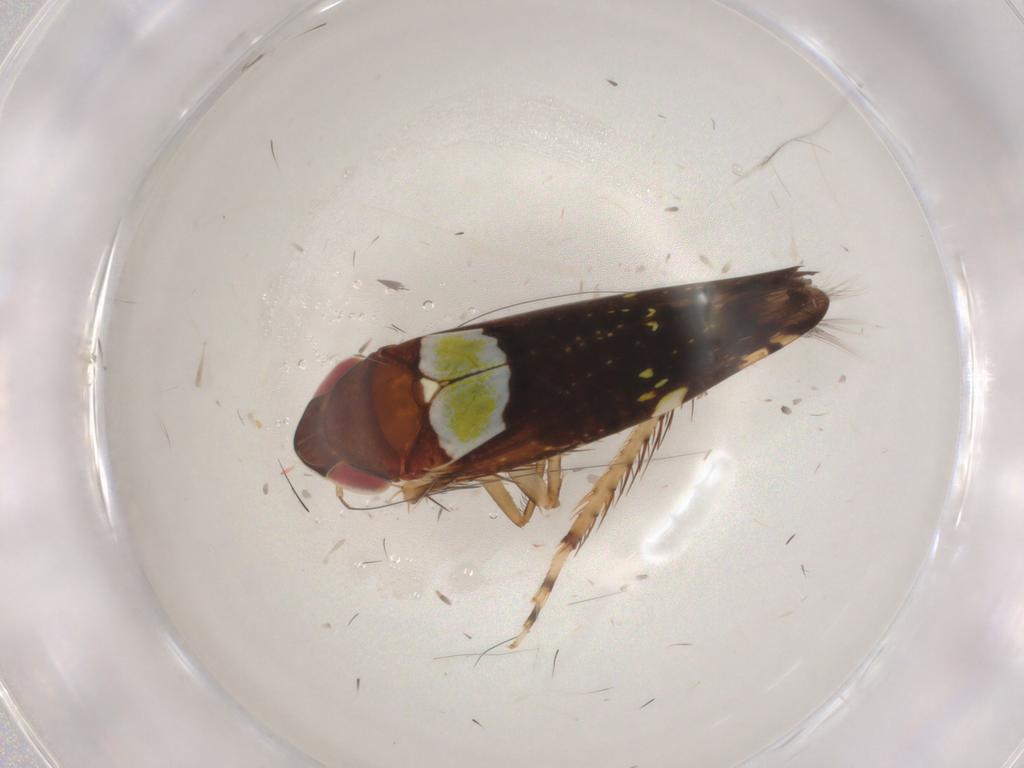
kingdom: Animalia
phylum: Arthropoda
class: Insecta
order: Hemiptera
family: Cicadellidae
